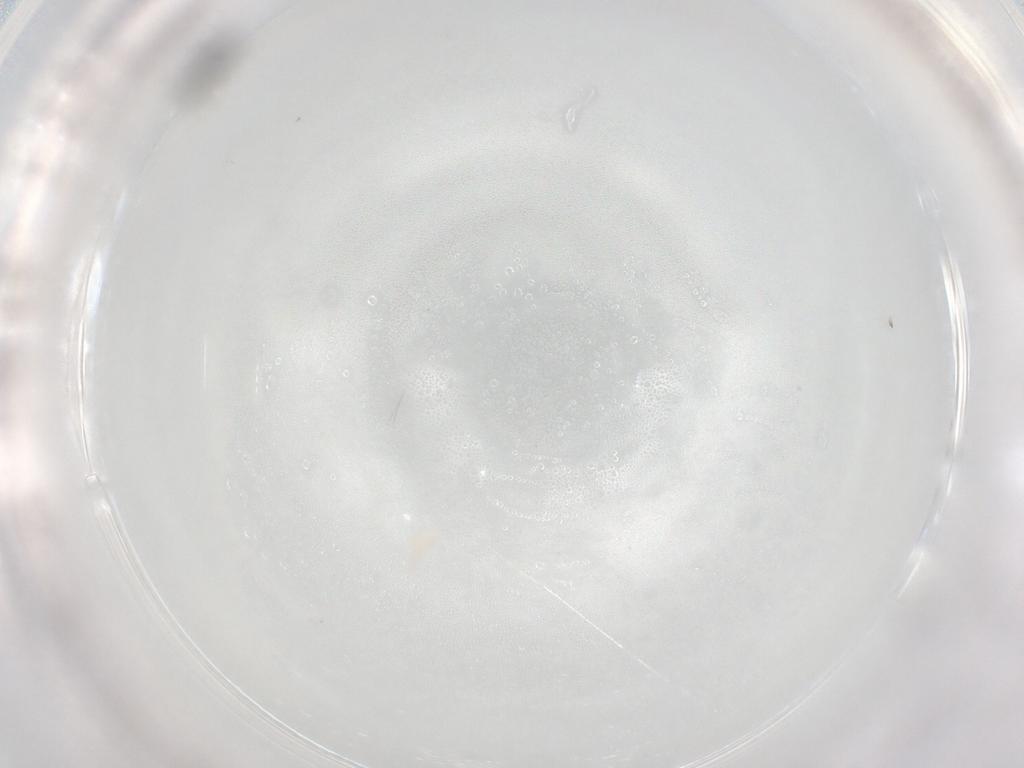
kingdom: Animalia
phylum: Arthropoda
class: Insecta
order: Hymenoptera
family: Scelionidae
